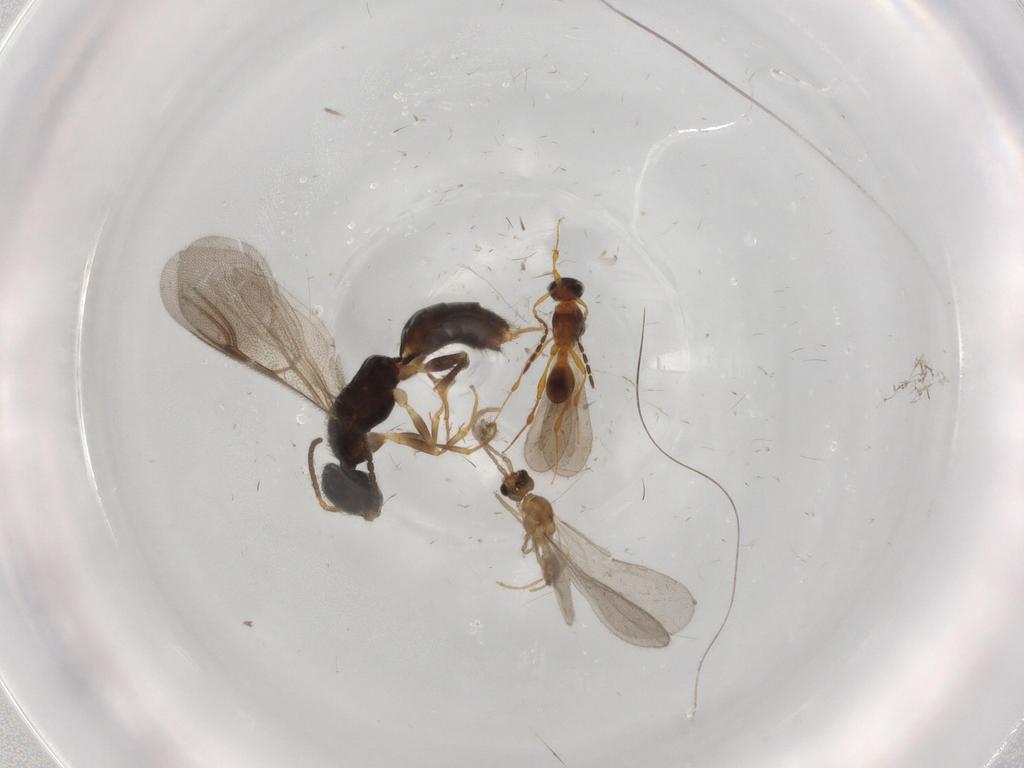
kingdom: Animalia
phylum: Arthropoda
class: Insecta
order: Hymenoptera
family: Formicidae
